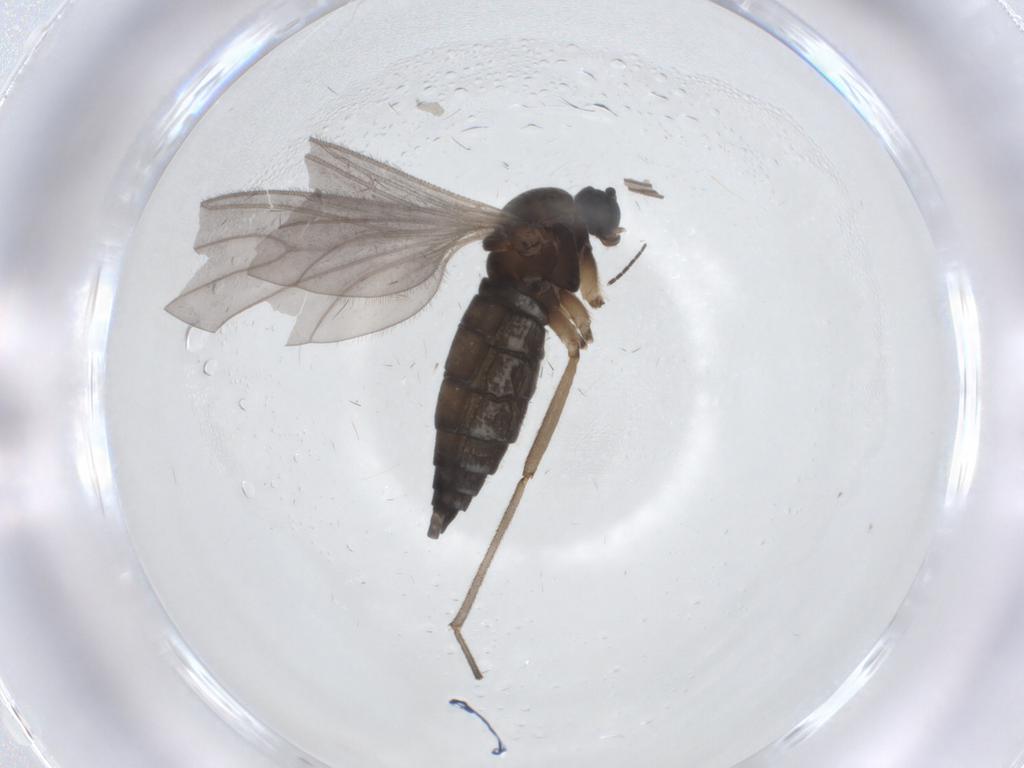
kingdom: Animalia
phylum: Arthropoda
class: Insecta
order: Diptera
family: Sciaridae
